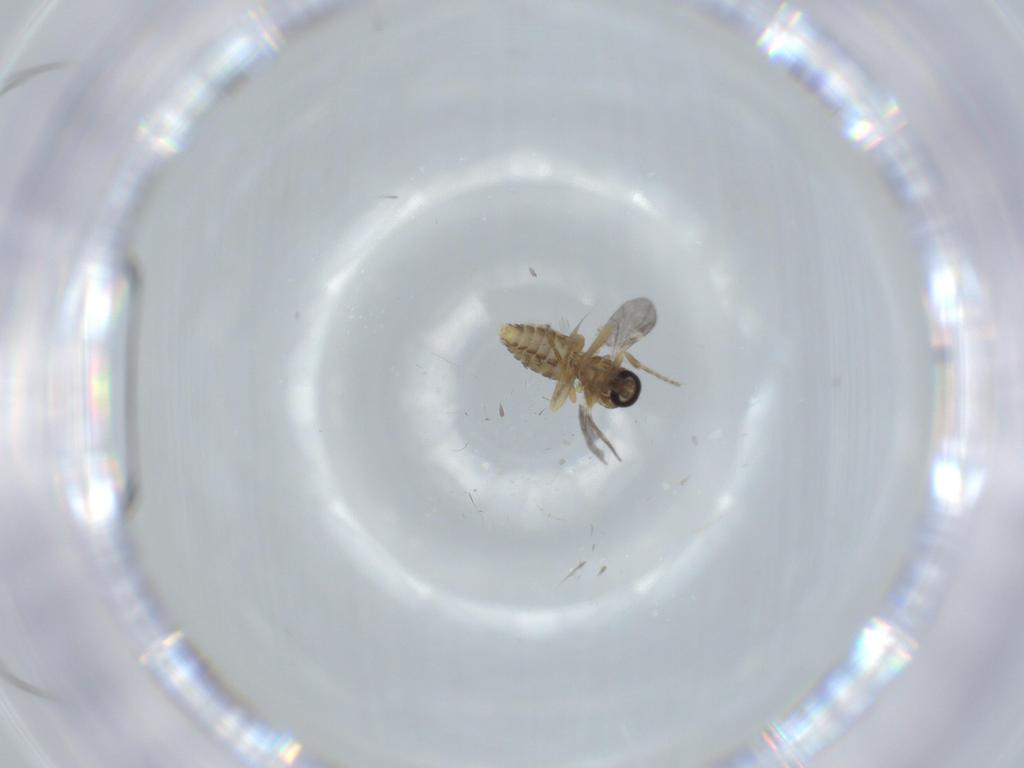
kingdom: Animalia
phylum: Arthropoda
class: Insecta
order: Diptera
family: Ceratopogonidae
